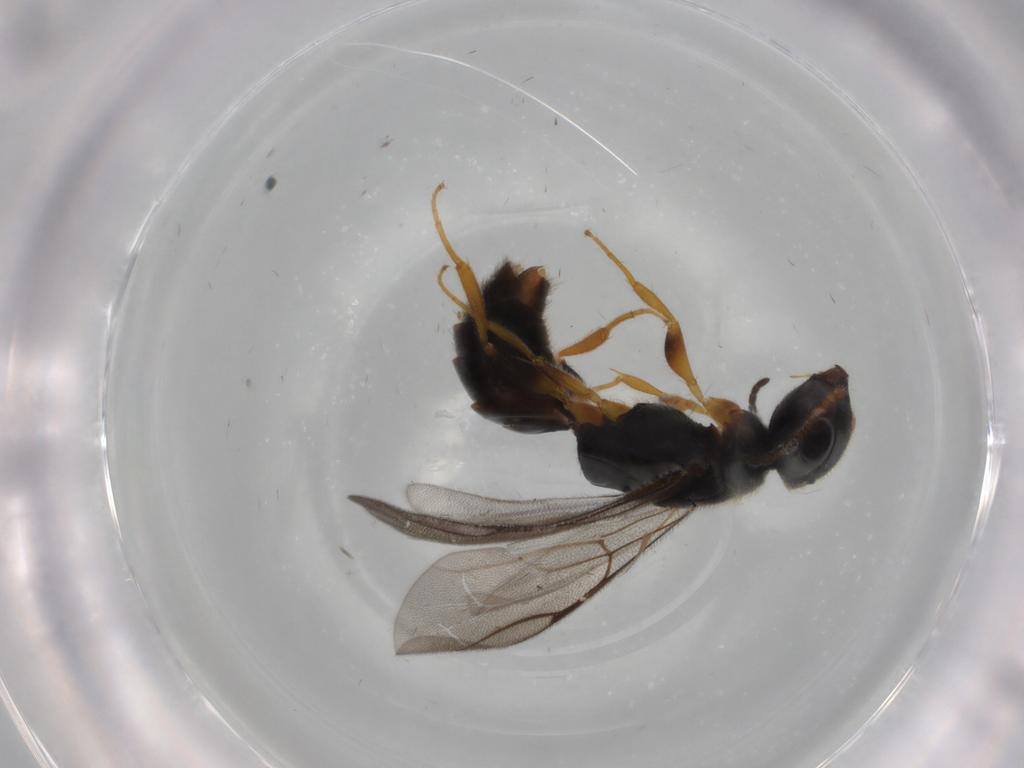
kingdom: Animalia
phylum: Arthropoda
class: Insecta
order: Hymenoptera
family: Bethylidae
